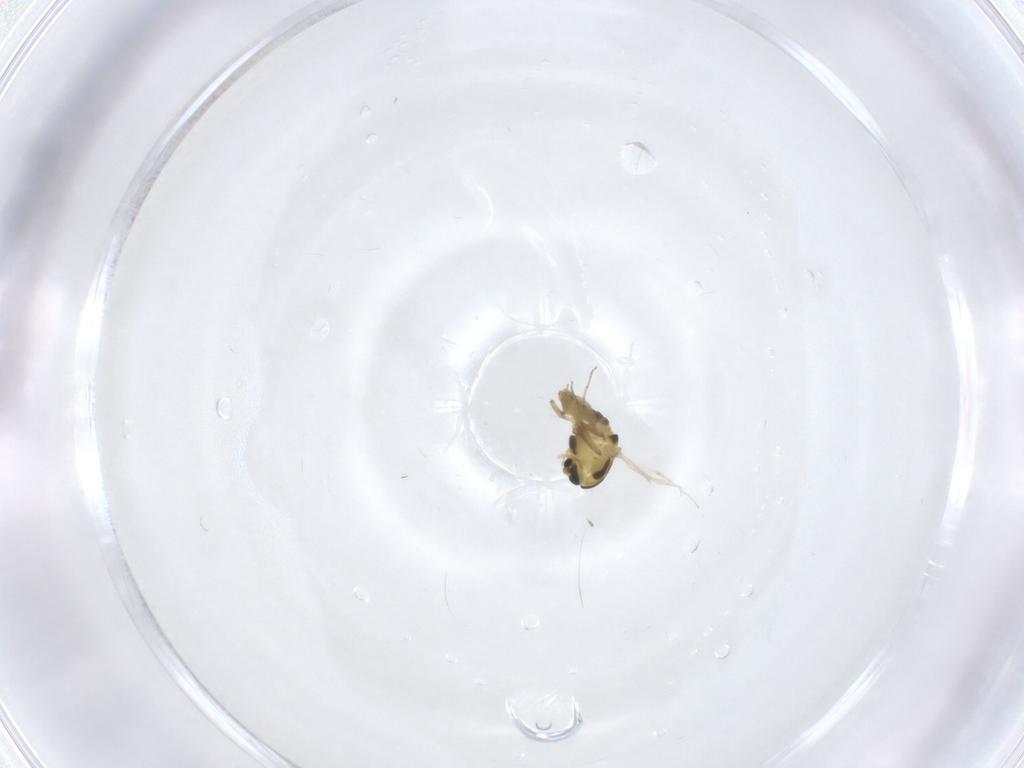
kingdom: Animalia
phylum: Arthropoda
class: Insecta
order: Diptera
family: Chironomidae
